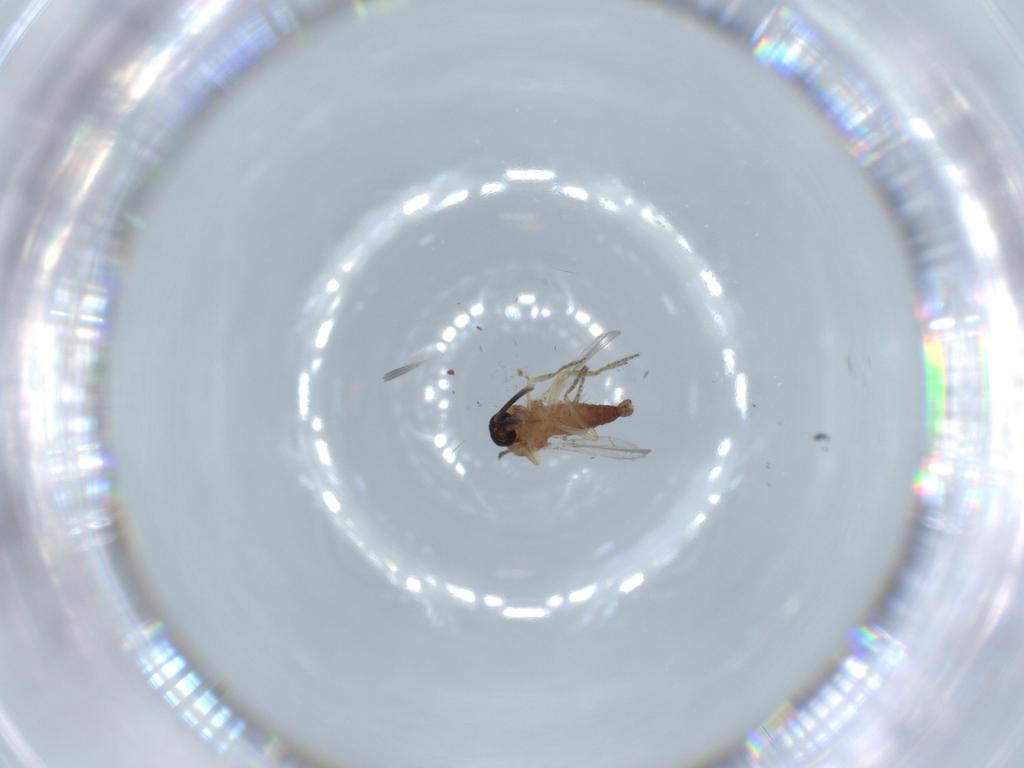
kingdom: Animalia
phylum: Arthropoda
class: Insecta
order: Diptera
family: Ceratopogonidae
